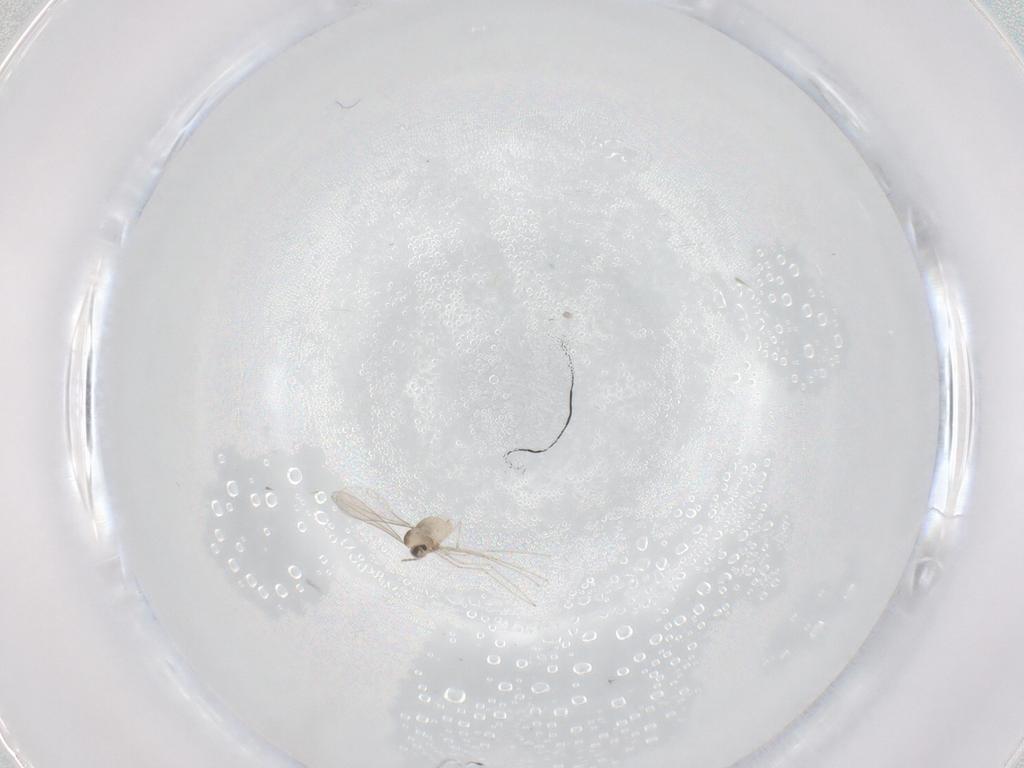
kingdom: Animalia
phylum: Arthropoda
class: Insecta
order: Diptera
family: Cecidomyiidae
